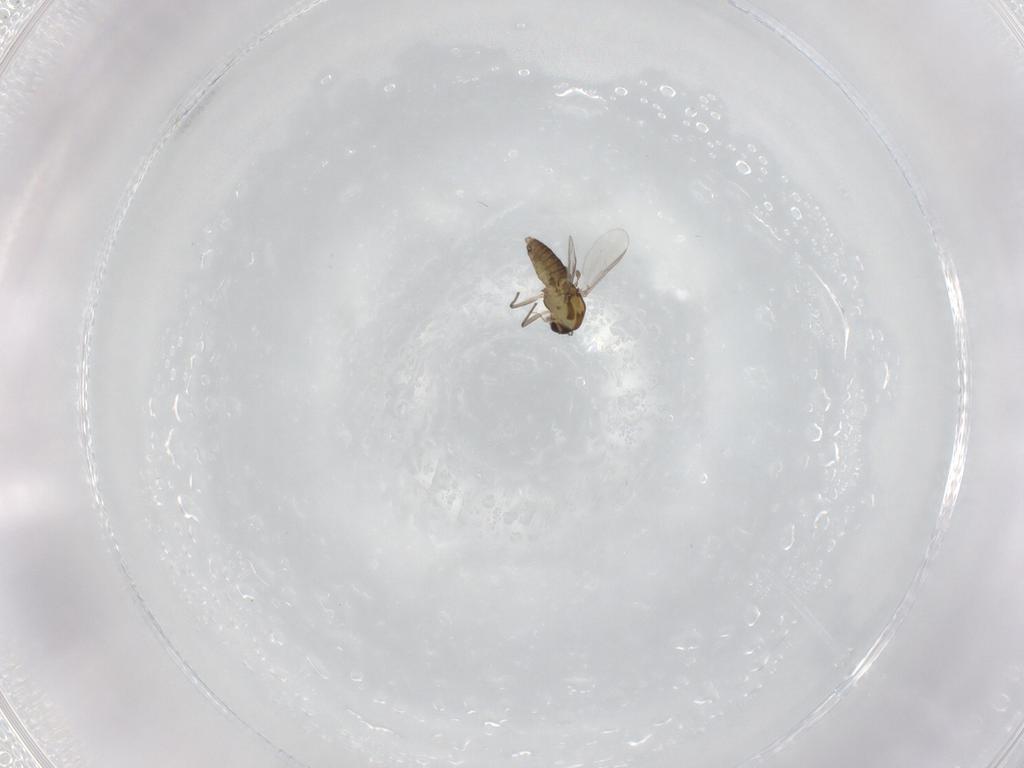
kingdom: Animalia
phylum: Arthropoda
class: Insecta
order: Diptera
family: Chironomidae
